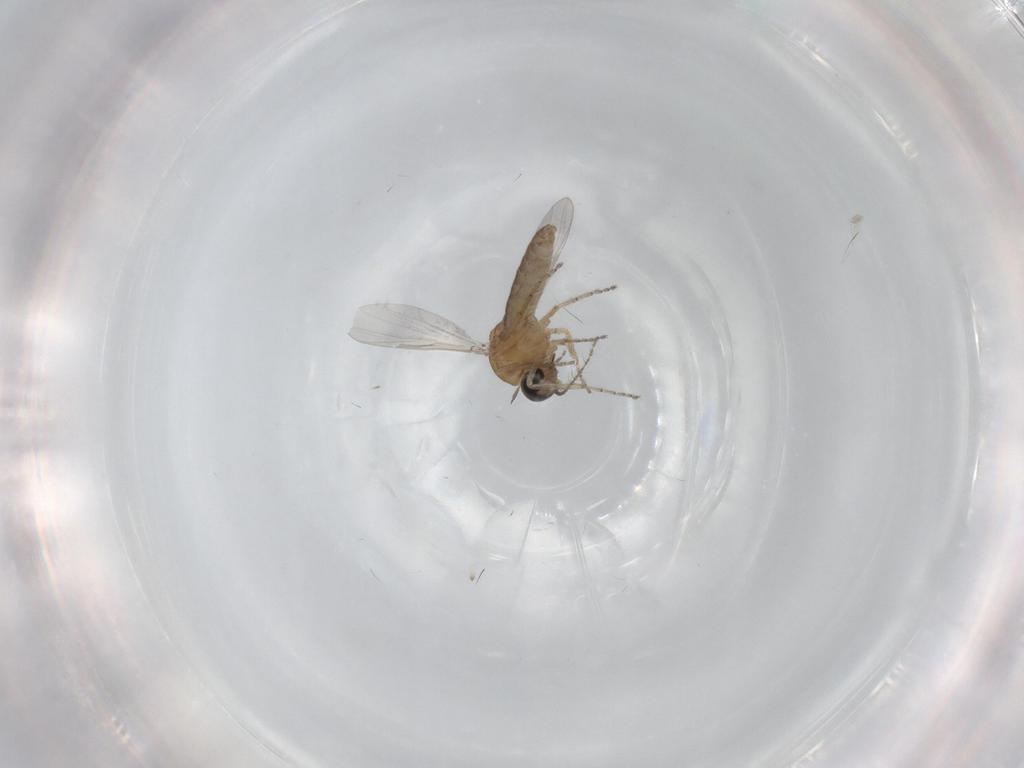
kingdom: Animalia
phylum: Arthropoda
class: Insecta
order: Diptera
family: Ceratopogonidae
